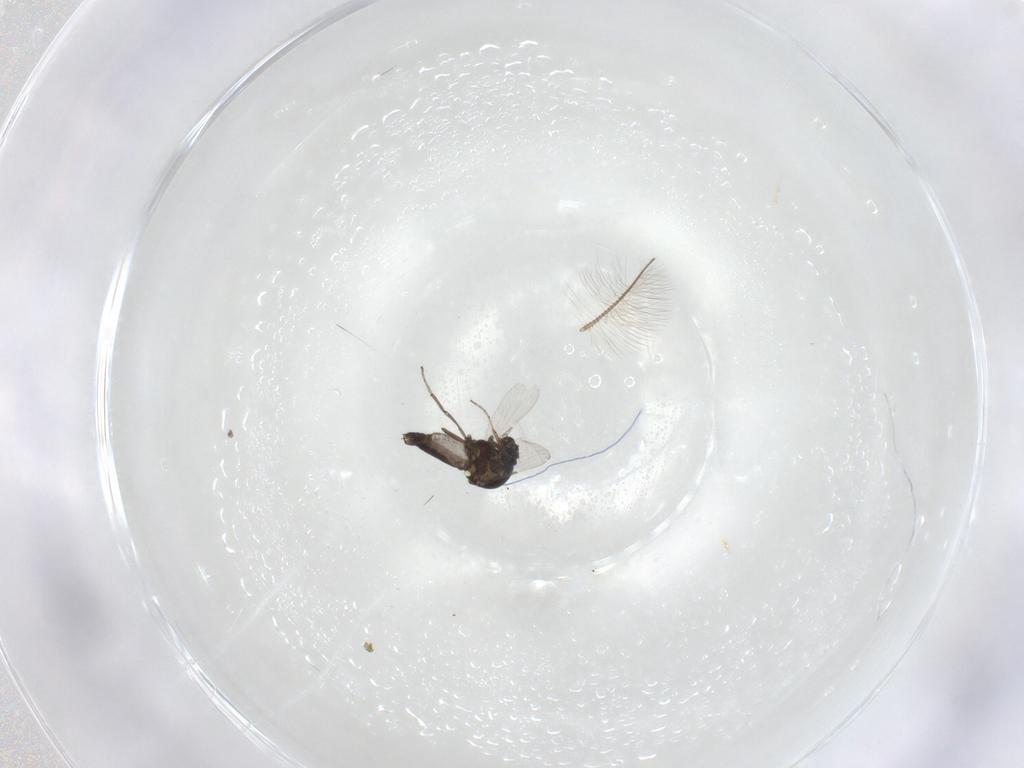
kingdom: Animalia
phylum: Arthropoda
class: Insecta
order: Diptera
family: Ceratopogonidae
